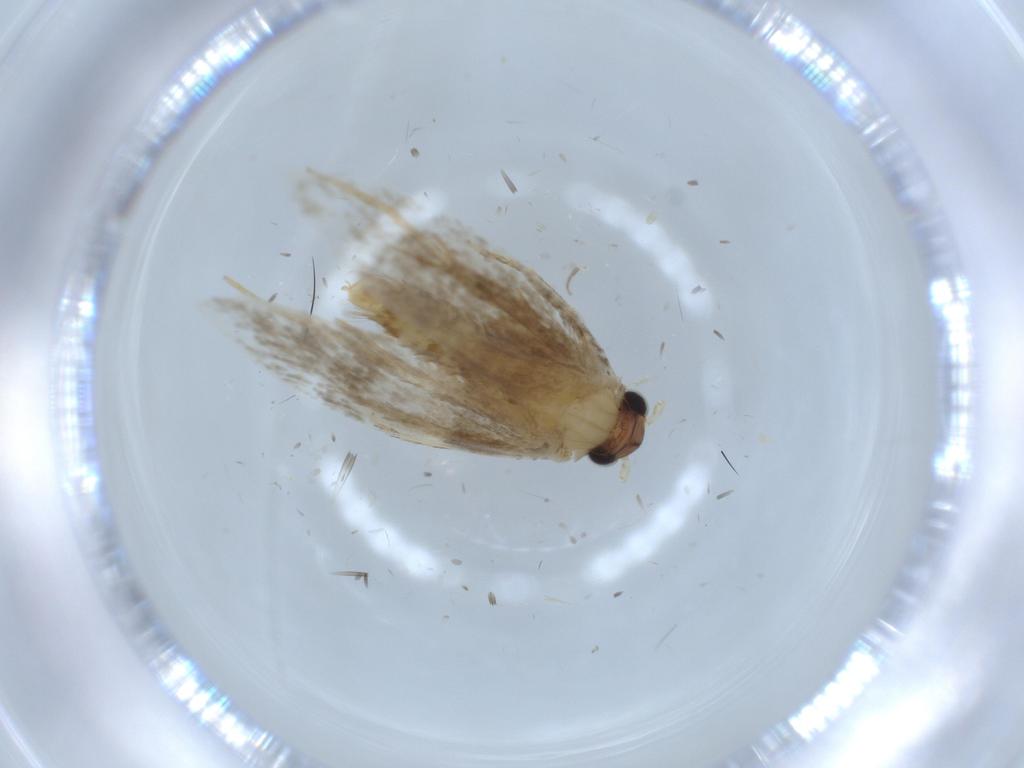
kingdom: Animalia
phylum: Arthropoda
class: Insecta
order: Lepidoptera
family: Tineidae
